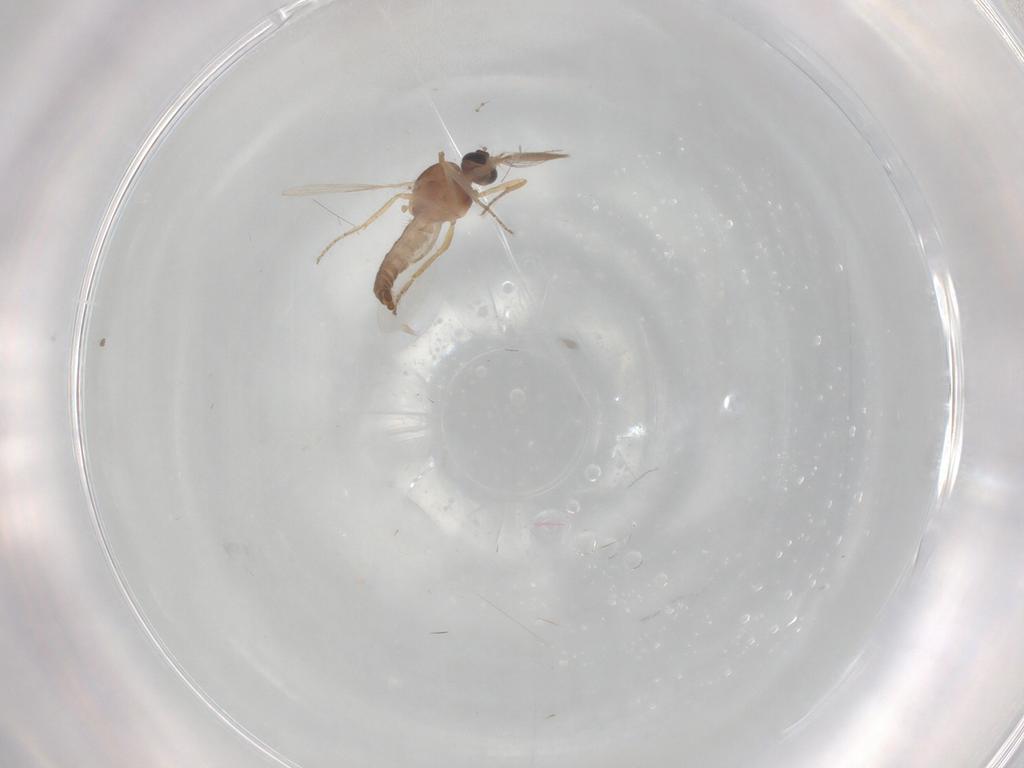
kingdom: Animalia
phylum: Arthropoda
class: Insecta
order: Diptera
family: Ceratopogonidae
